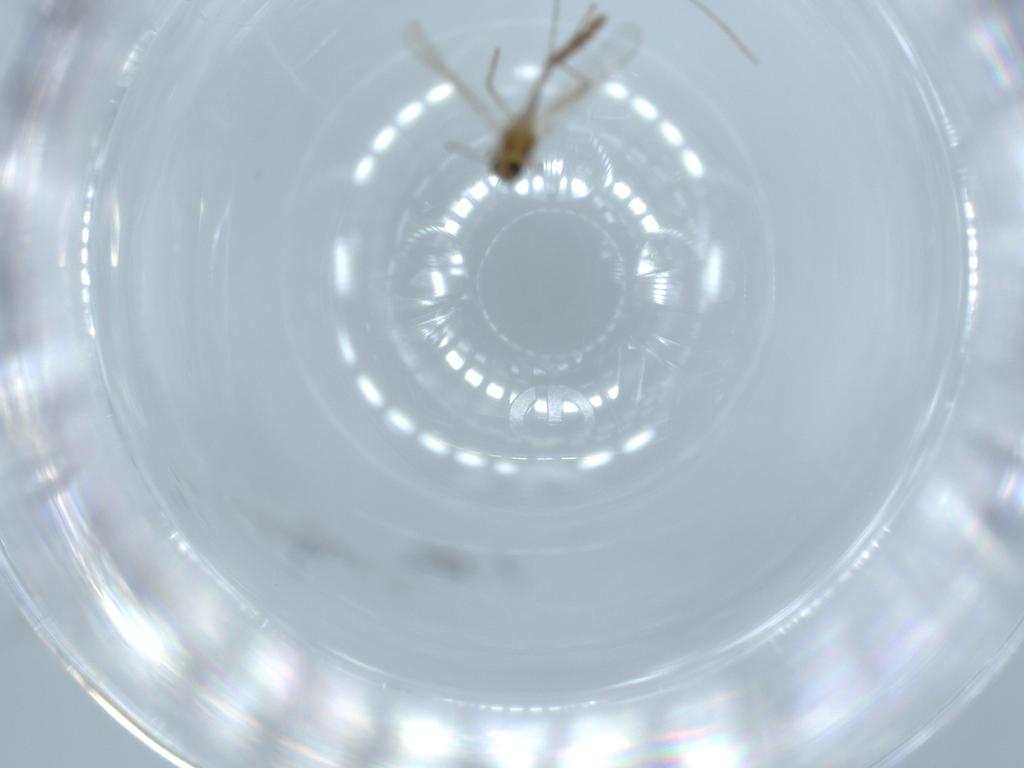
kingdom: Animalia
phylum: Arthropoda
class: Insecta
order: Diptera
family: Chironomidae
